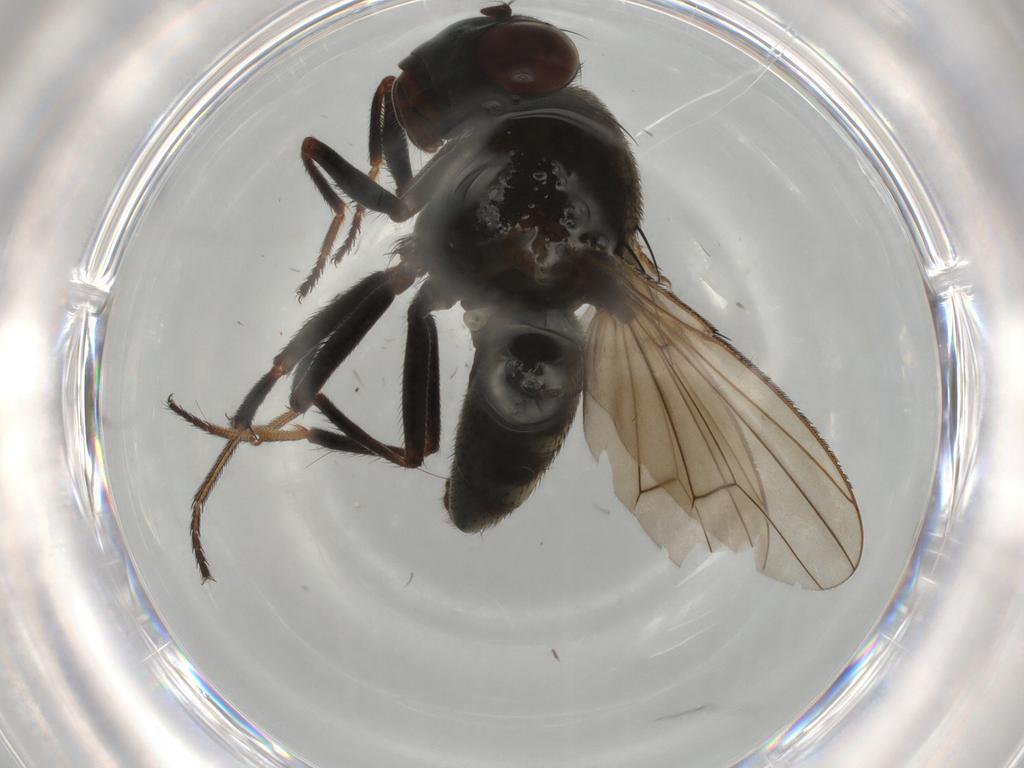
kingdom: Animalia
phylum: Arthropoda
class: Insecta
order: Diptera
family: Ephydridae
